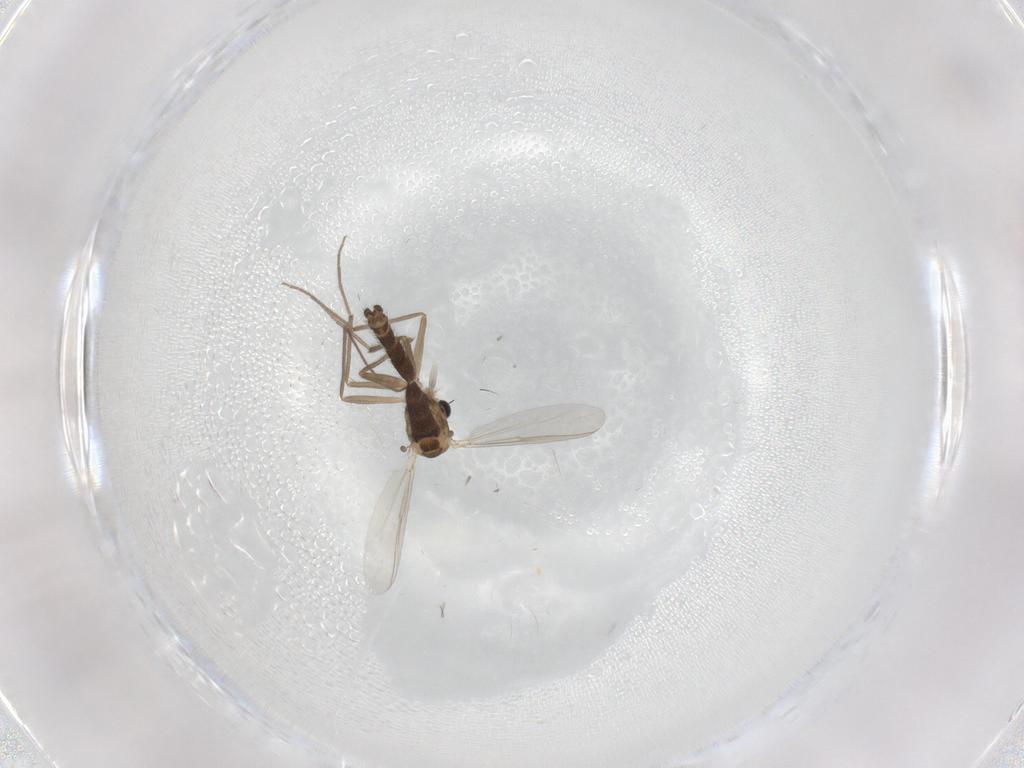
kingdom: Animalia
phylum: Arthropoda
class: Insecta
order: Diptera
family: Chironomidae
